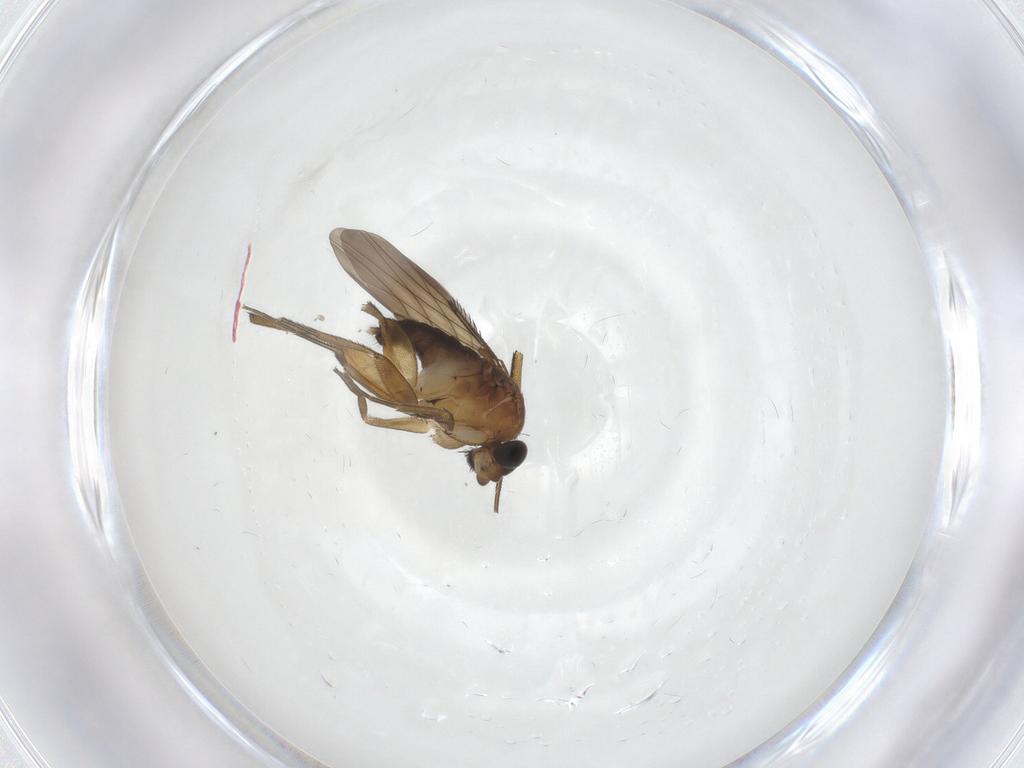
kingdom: Animalia
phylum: Arthropoda
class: Insecta
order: Diptera
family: Phoridae
